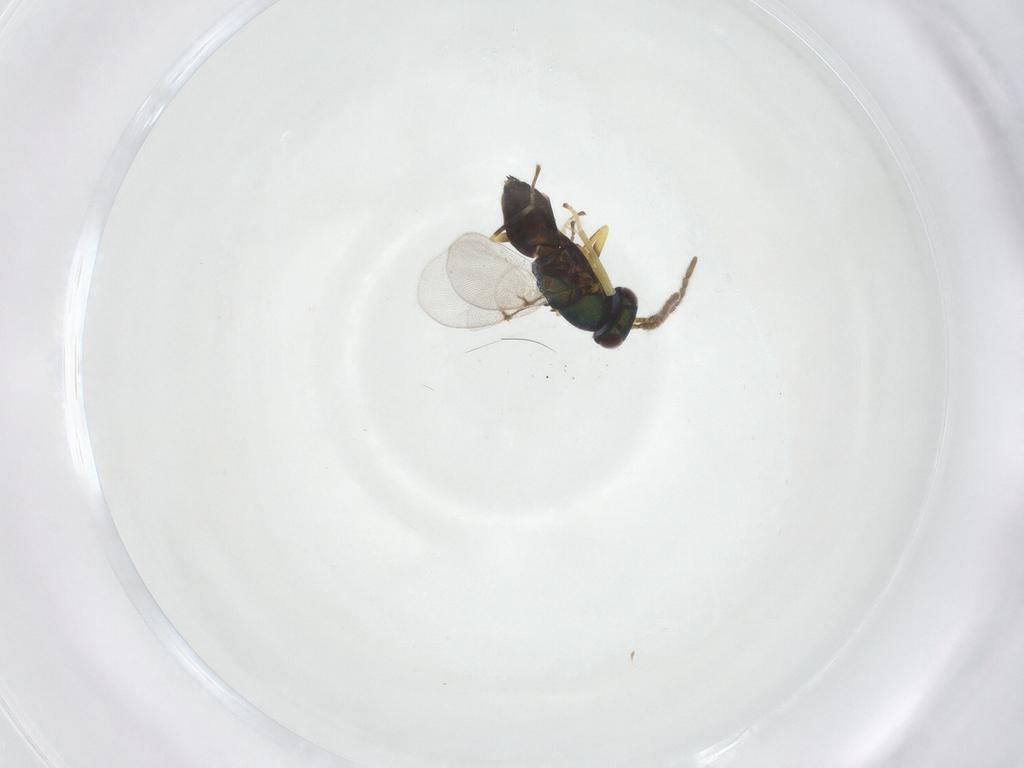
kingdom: Animalia
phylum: Arthropoda
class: Insecta
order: Hymenoptera
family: Encyrtidae
